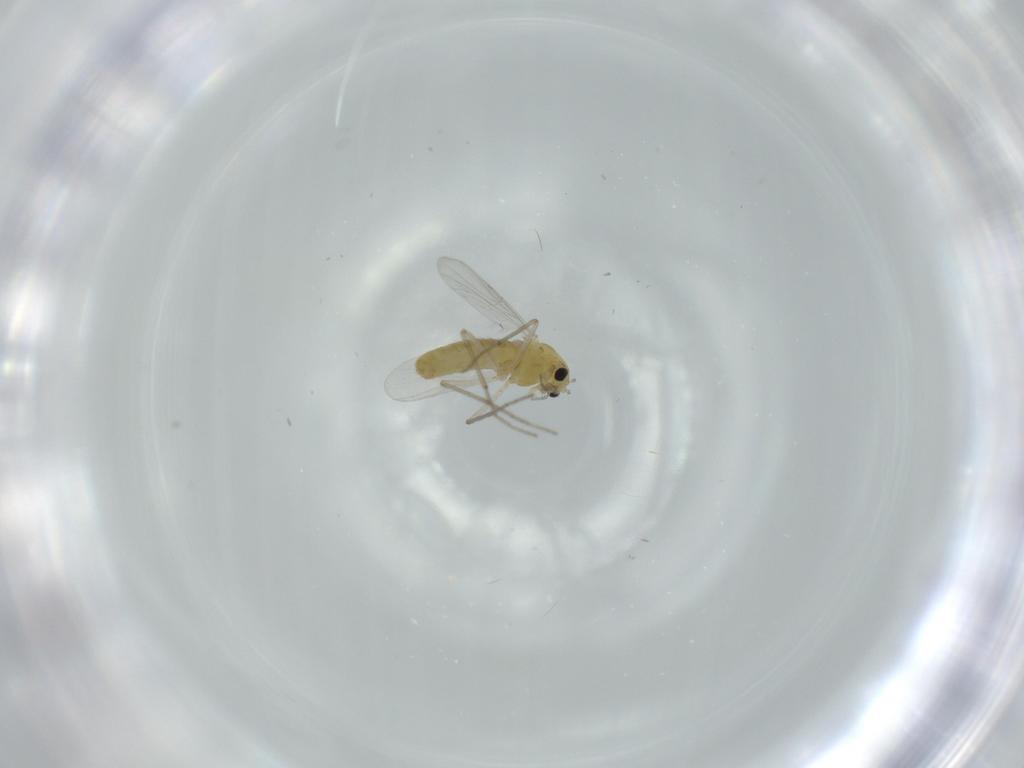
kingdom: Animalia
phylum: Arthropoda
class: Insecta
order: Diptera
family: Chironomidae
